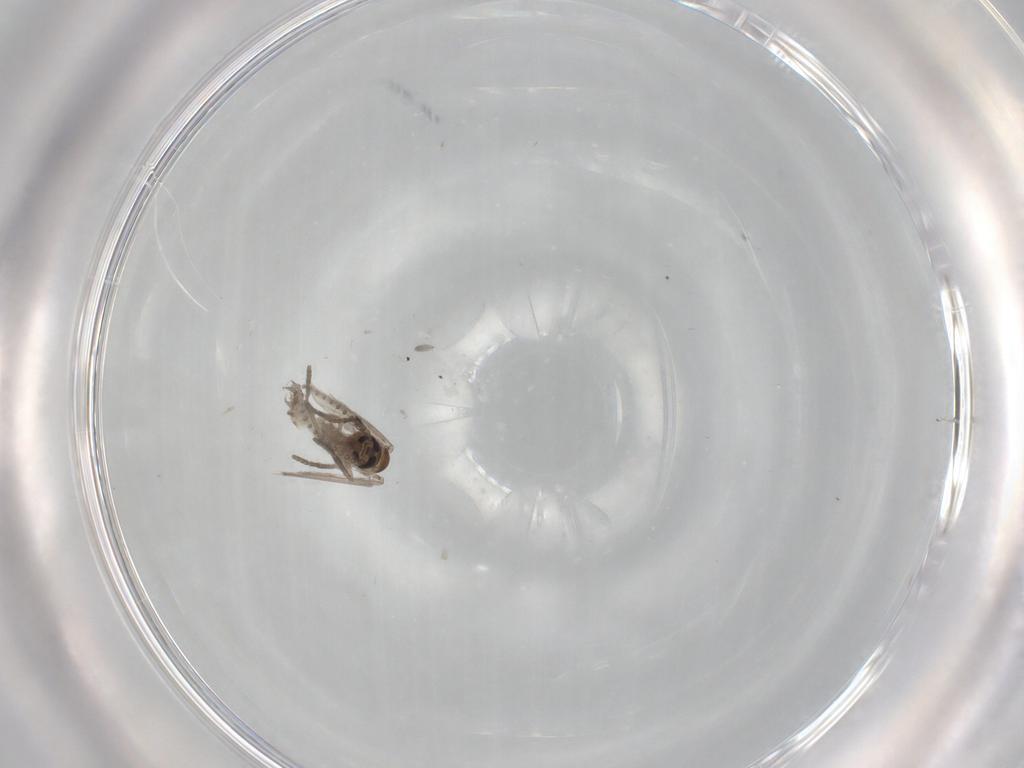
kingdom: Animalia
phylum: Arthropoda
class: Insecta
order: Diptera
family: Psychodidae
